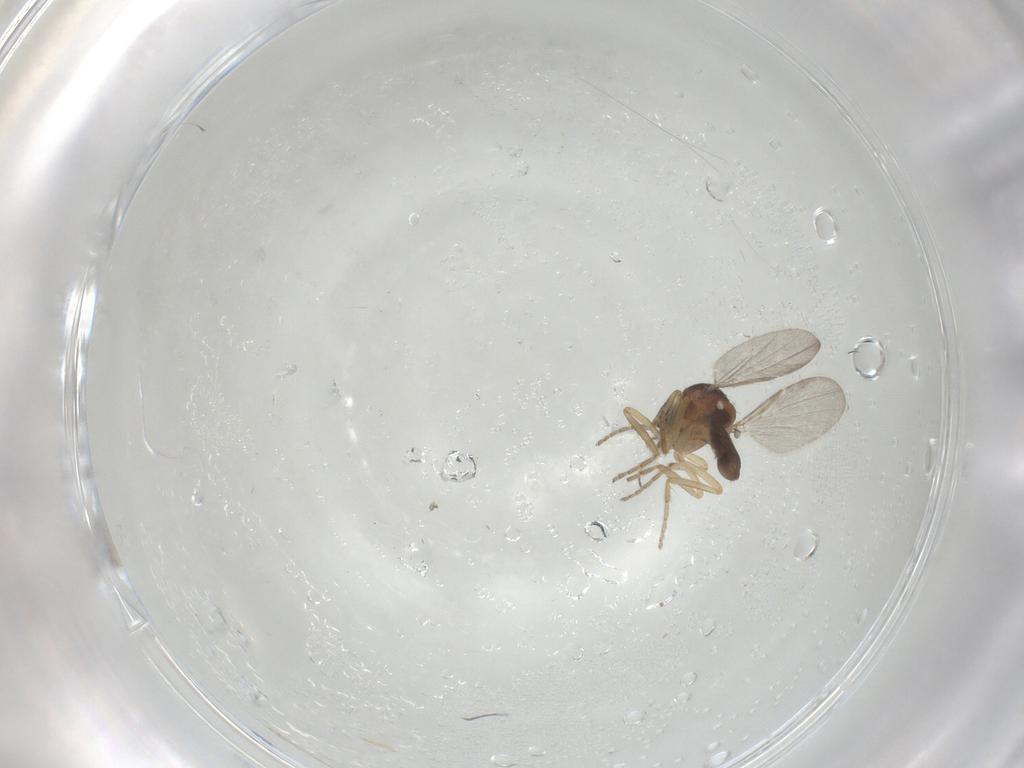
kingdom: Animalia
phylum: Arthropoda
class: Insecta
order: Diptera
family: Ceratopogonidae
